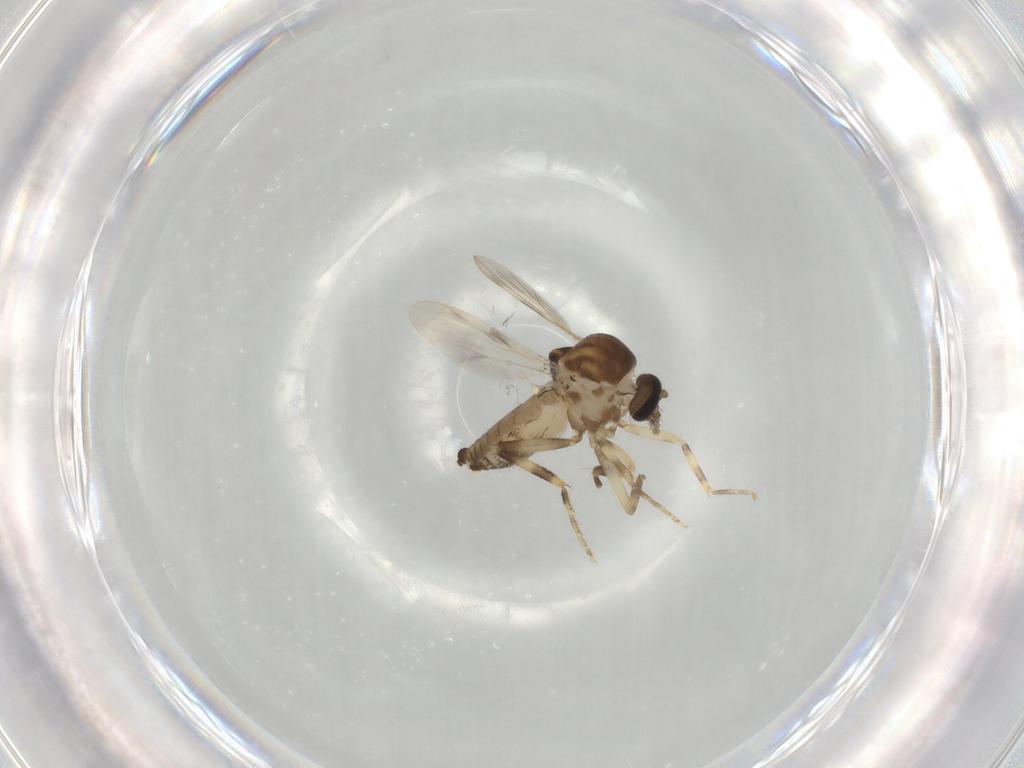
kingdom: Animalia
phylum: Arthropoda
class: Insecta
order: Diptera
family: Ceratopogonidae
